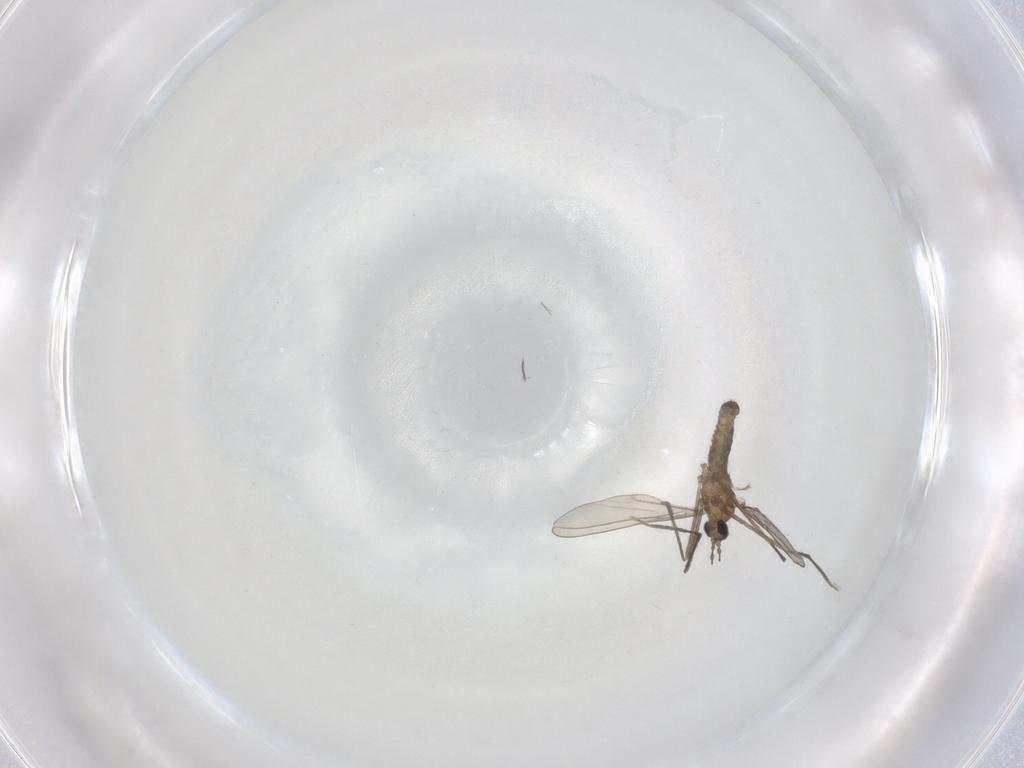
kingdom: Animalia
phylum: Arthropoda
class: Insecta
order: Diptera
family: Cecidomyiidae
